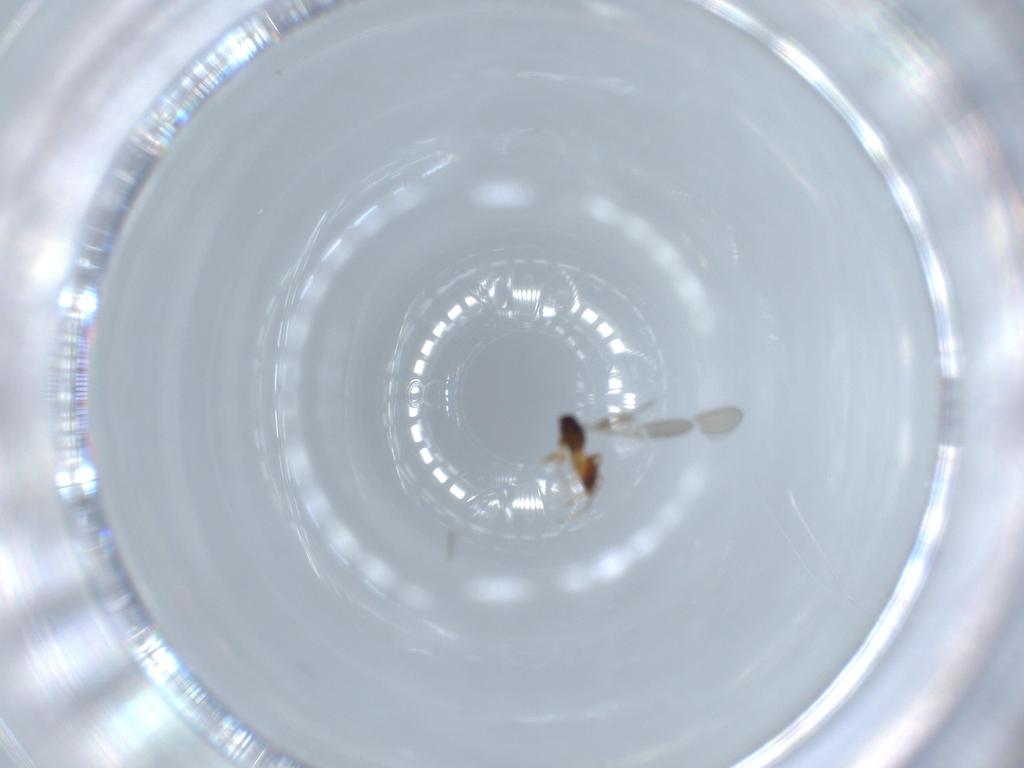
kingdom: Animalia
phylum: Arthropoda
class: Insecta
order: Hymenoptera
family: Mymaridae
